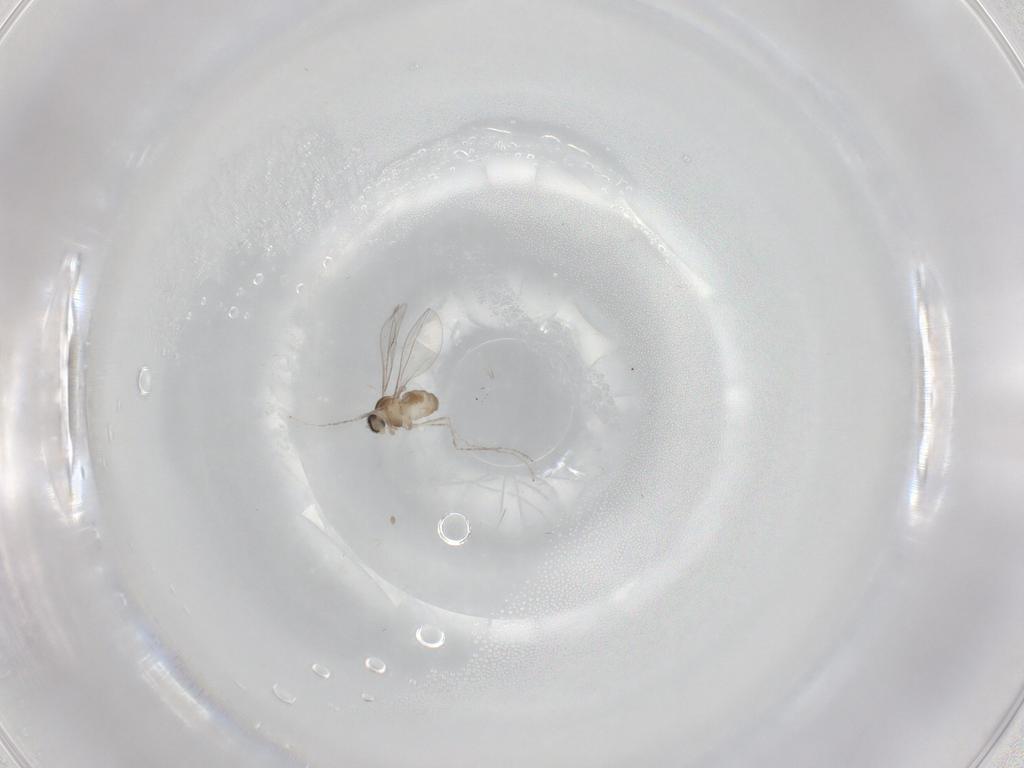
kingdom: Animalia
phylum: Arthropoda
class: Insecta
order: Diptera
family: Cecidomyiidae
